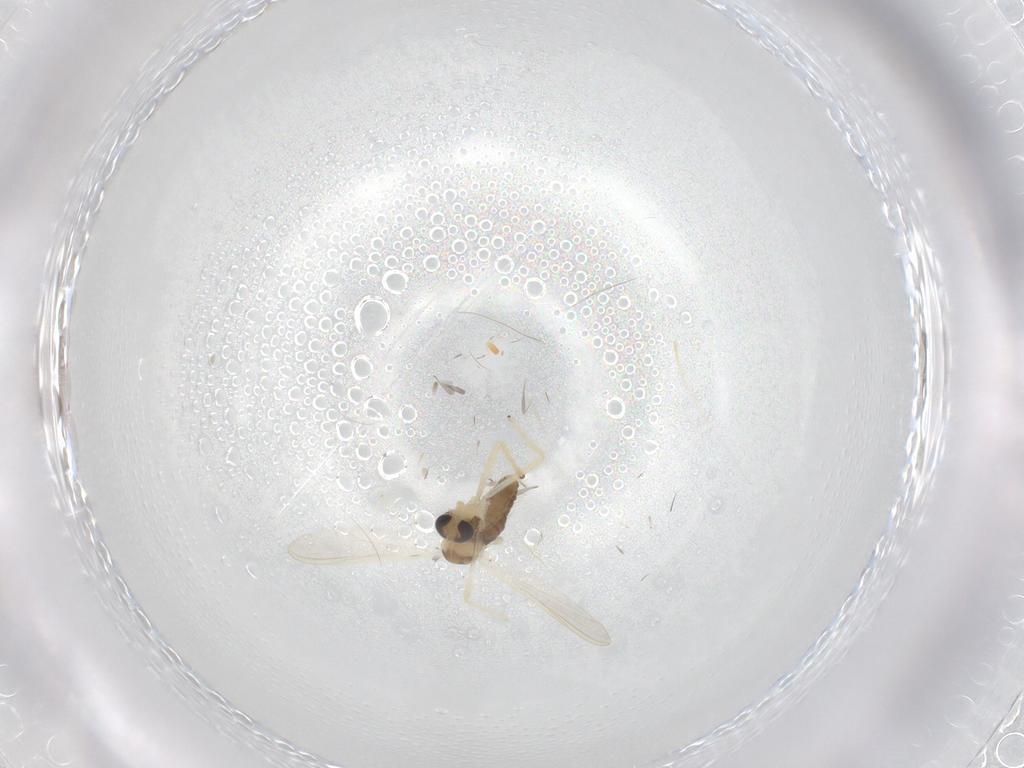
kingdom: Animalia
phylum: Arthropoda
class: Insecta
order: Diptera
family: Chironomidae
